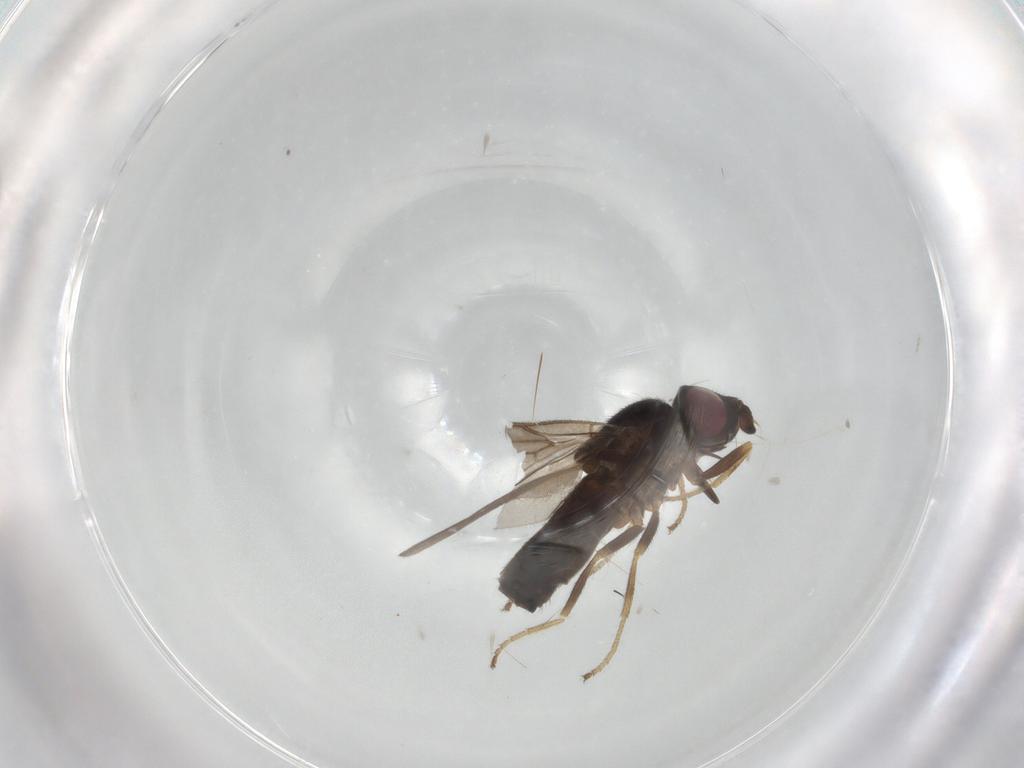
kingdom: Animalia
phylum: Arthropoda
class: Insecta
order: Diptera
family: Chloropidae
